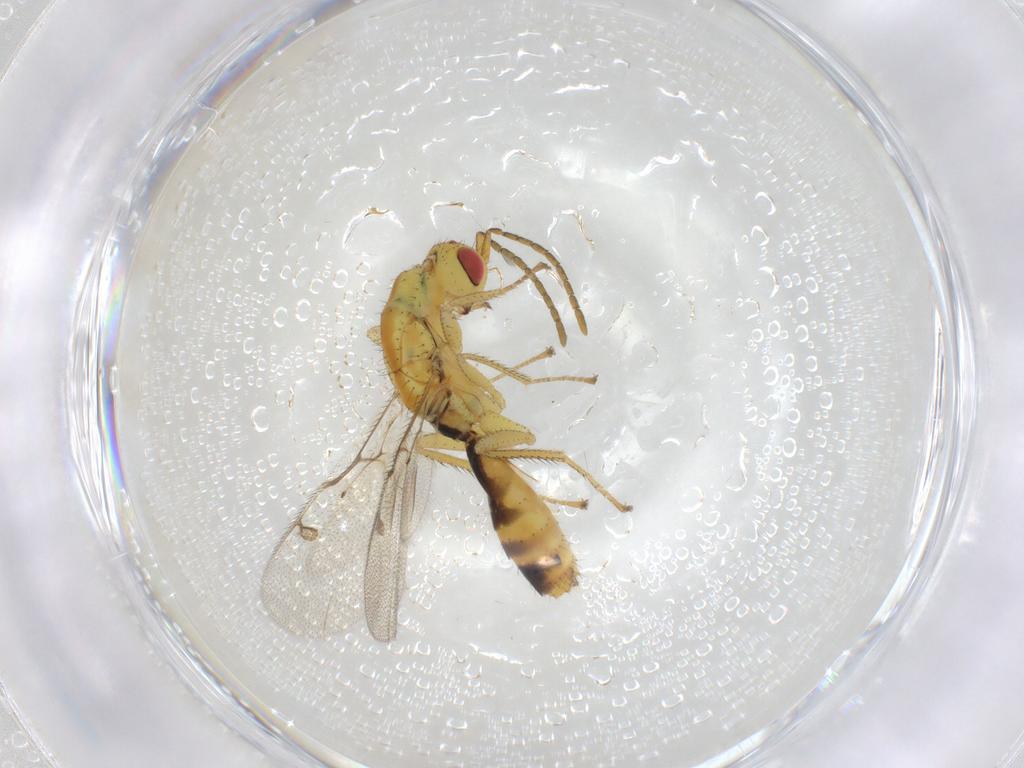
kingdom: Animalia
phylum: Arthropoda
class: Insecta
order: Hymenoptera
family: Megastigmidae
